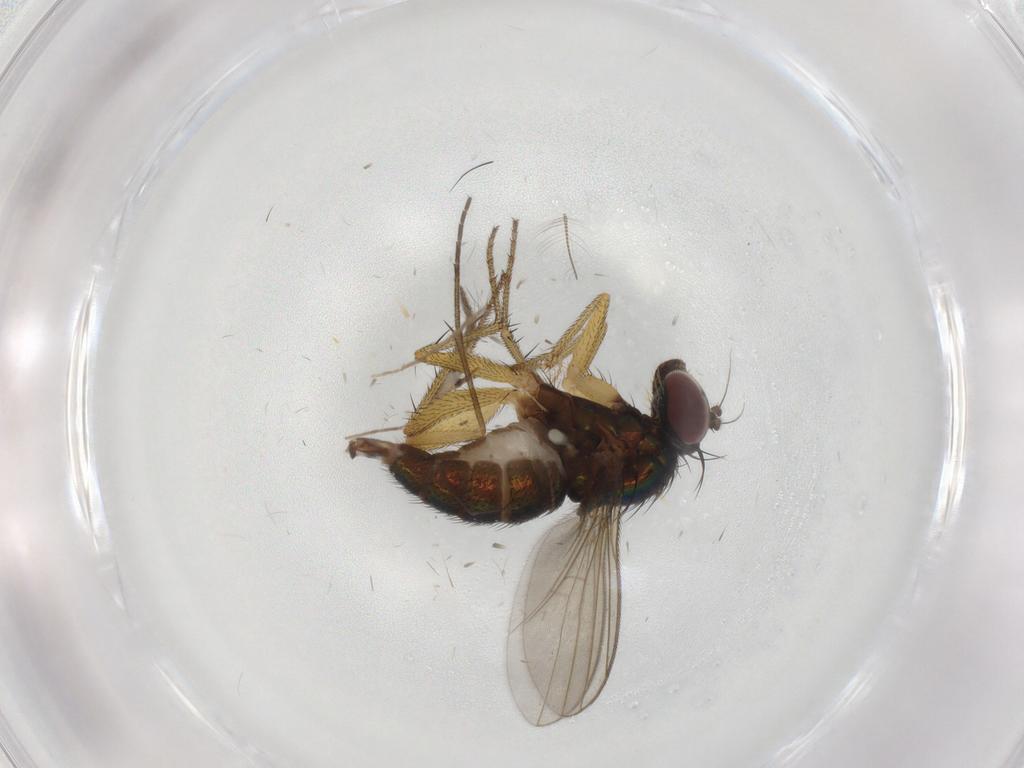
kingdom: Animalia
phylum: Arthropoda
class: Insecta
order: Diptera
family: Chironomidae
